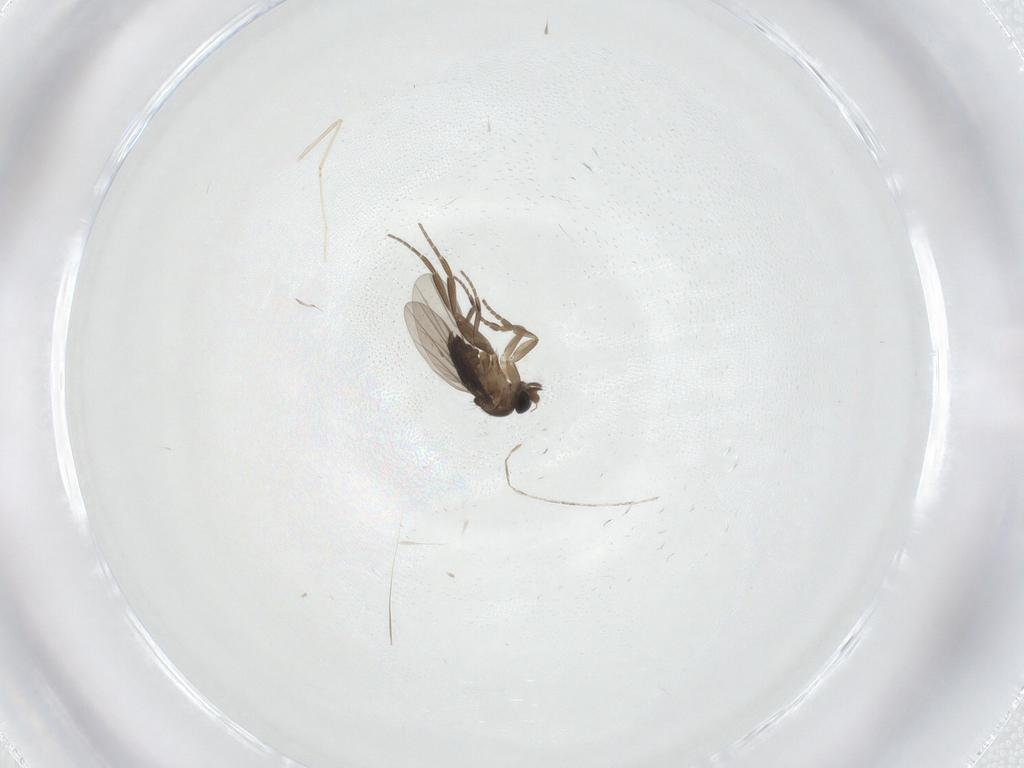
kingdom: Animalia
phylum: Arthropoda
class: Insecta
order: Diptera
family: Phoridae
